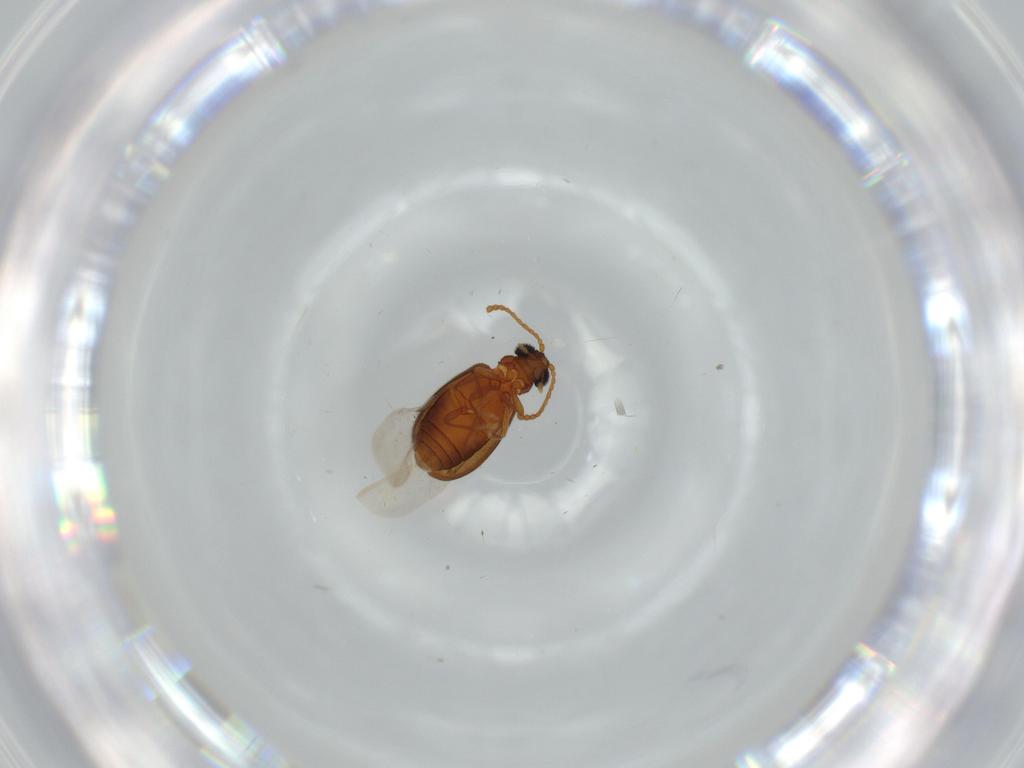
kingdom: Animalia
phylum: Arthropoda
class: Insecta
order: Coleoptera
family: Aderidae
